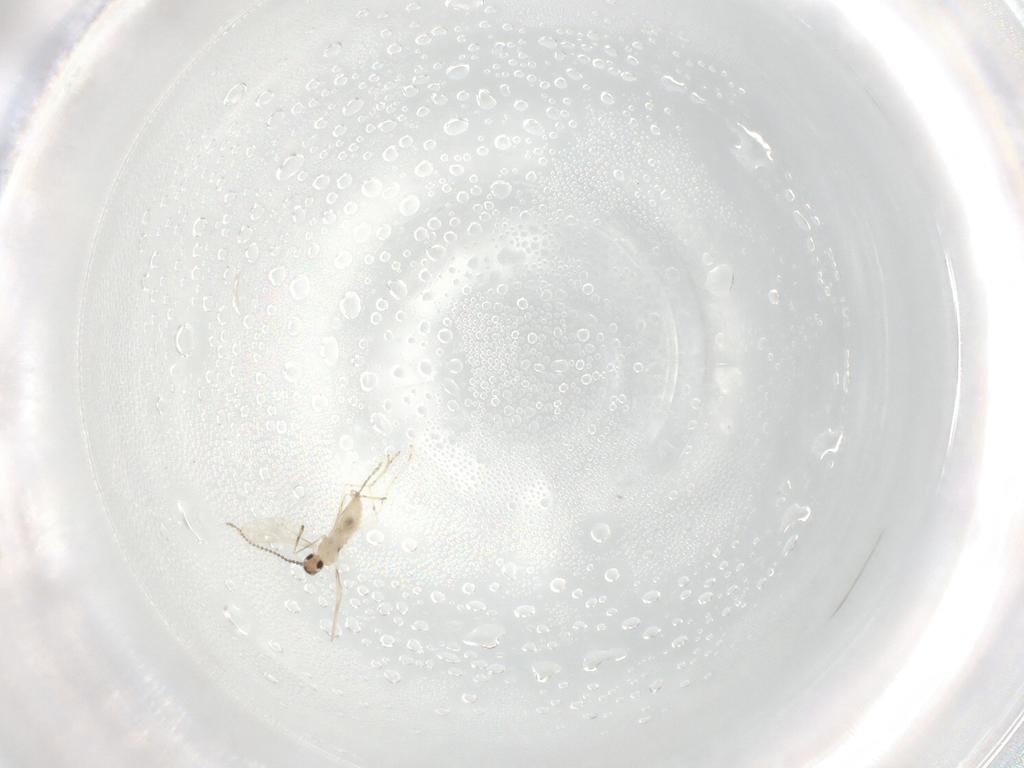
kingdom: Animalia
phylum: Arthropoda
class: Insecta
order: Diptera
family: Cecidomyiidae
